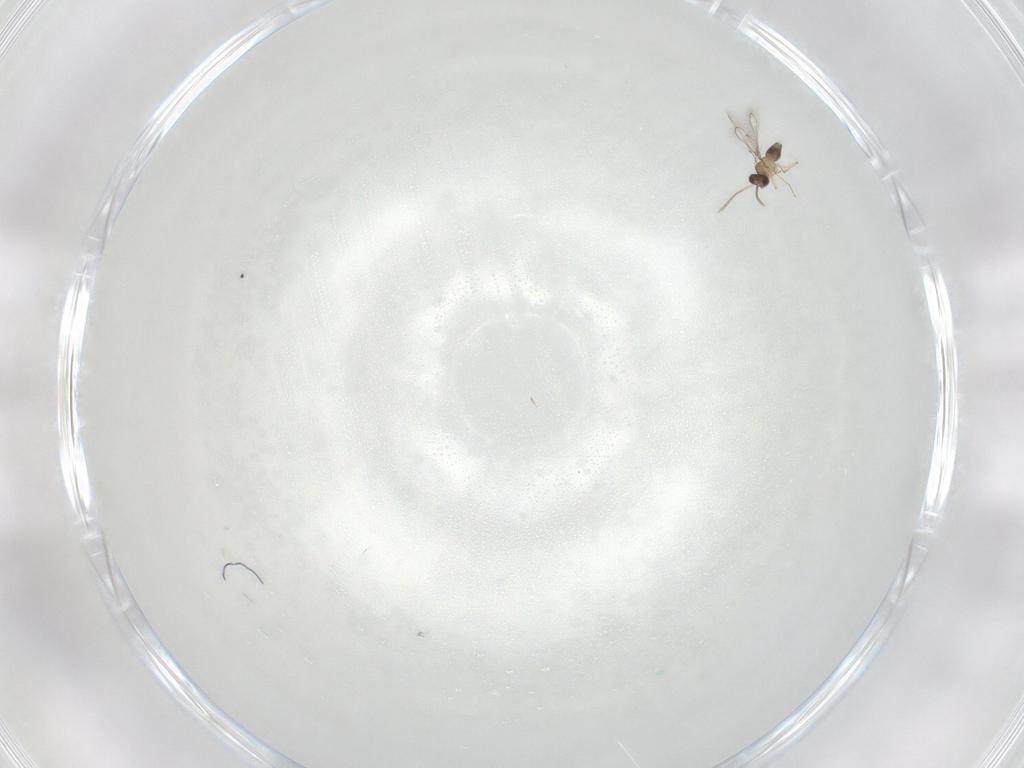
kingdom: Animalia
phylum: Arthropoda
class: Insecta
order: Hymenoptera
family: Mymaridae
